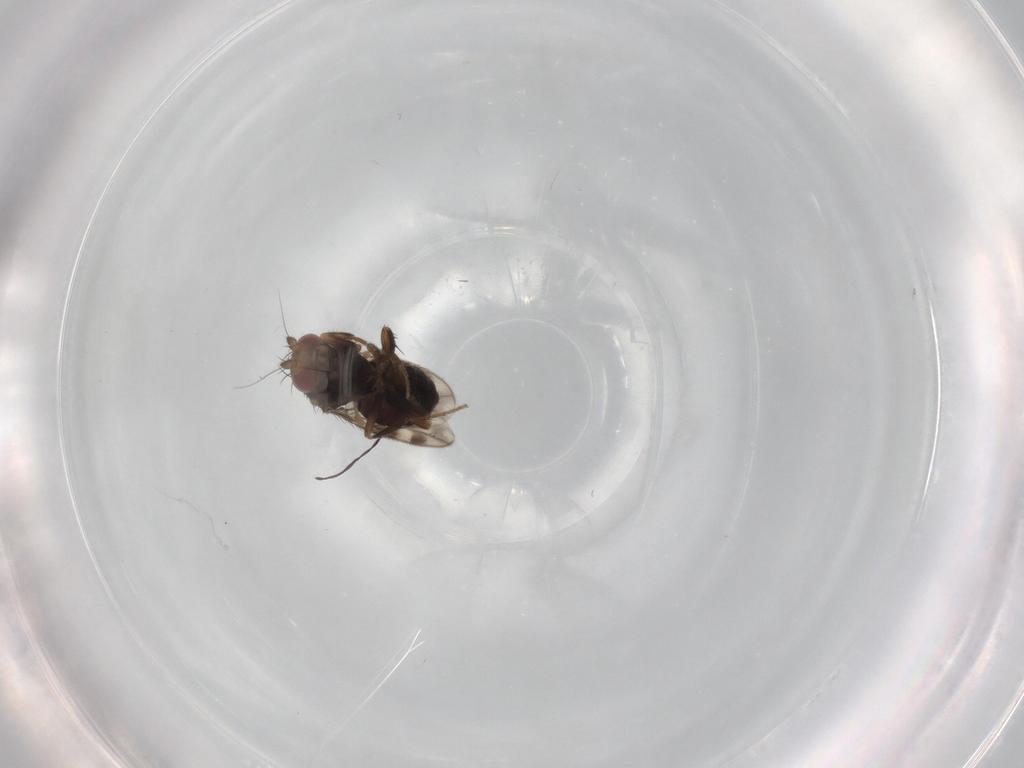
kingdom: Animalia
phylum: Arthropoda
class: Insecta
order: Diptera
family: Sphaeroceridae
